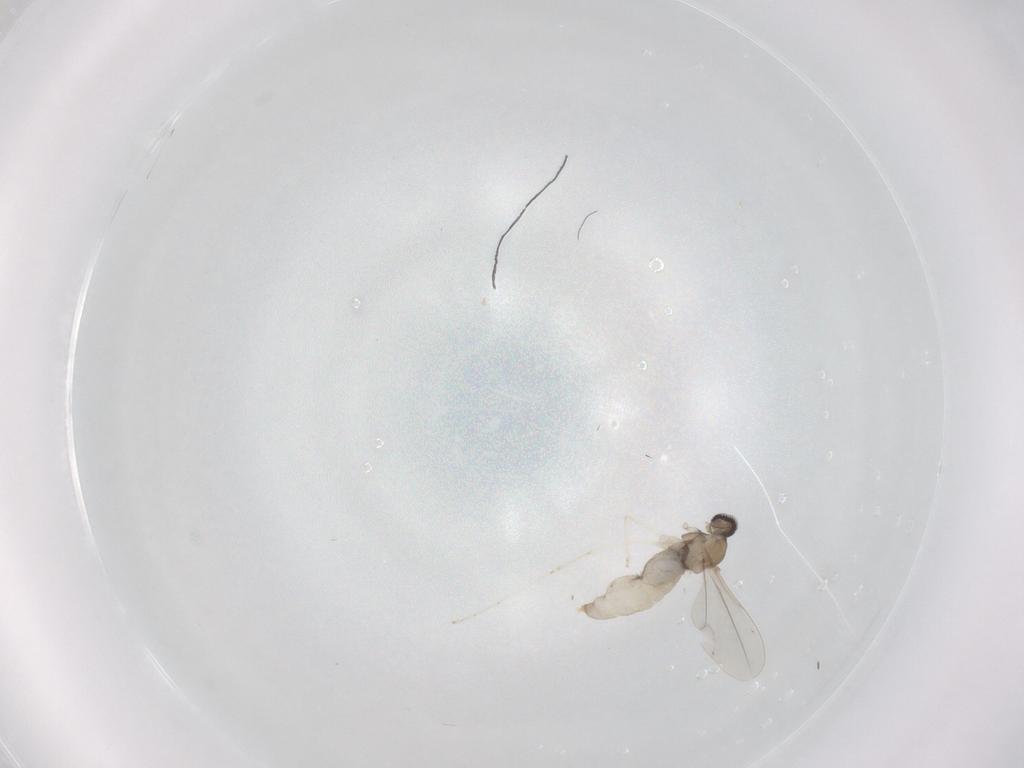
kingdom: Animalia
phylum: Arthropoda
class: Insecta
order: Diptera
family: Cecidomyiidae
